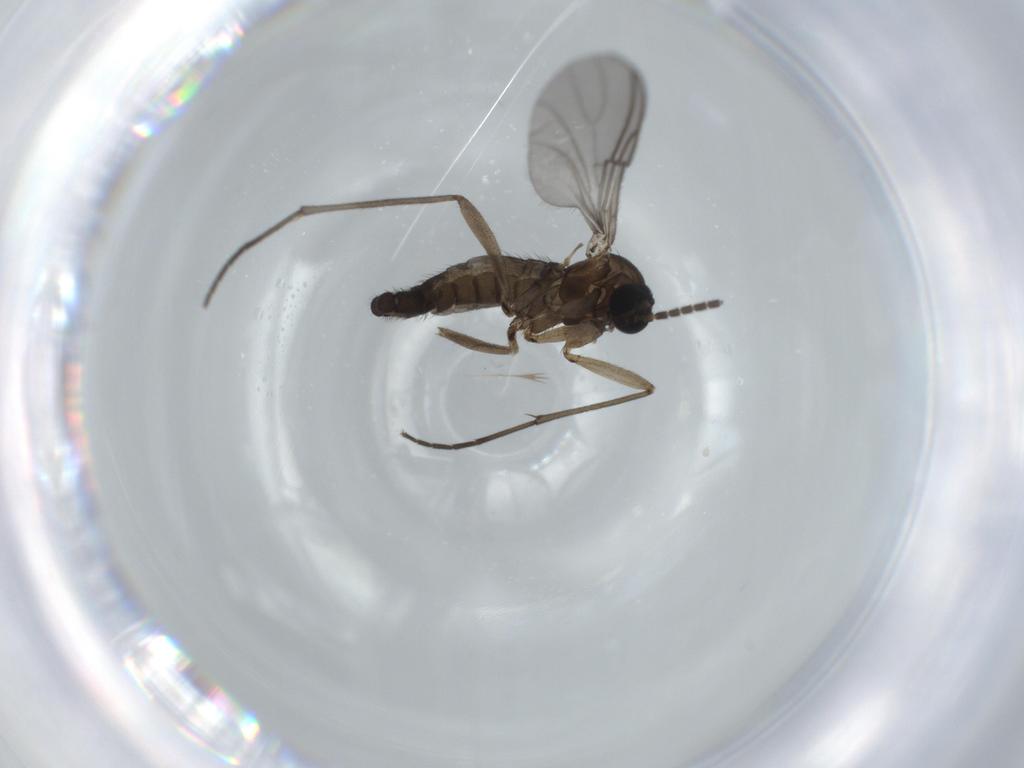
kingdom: Animalia
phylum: Arthropoda
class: Insecta
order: Diptera
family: Sciaridae
